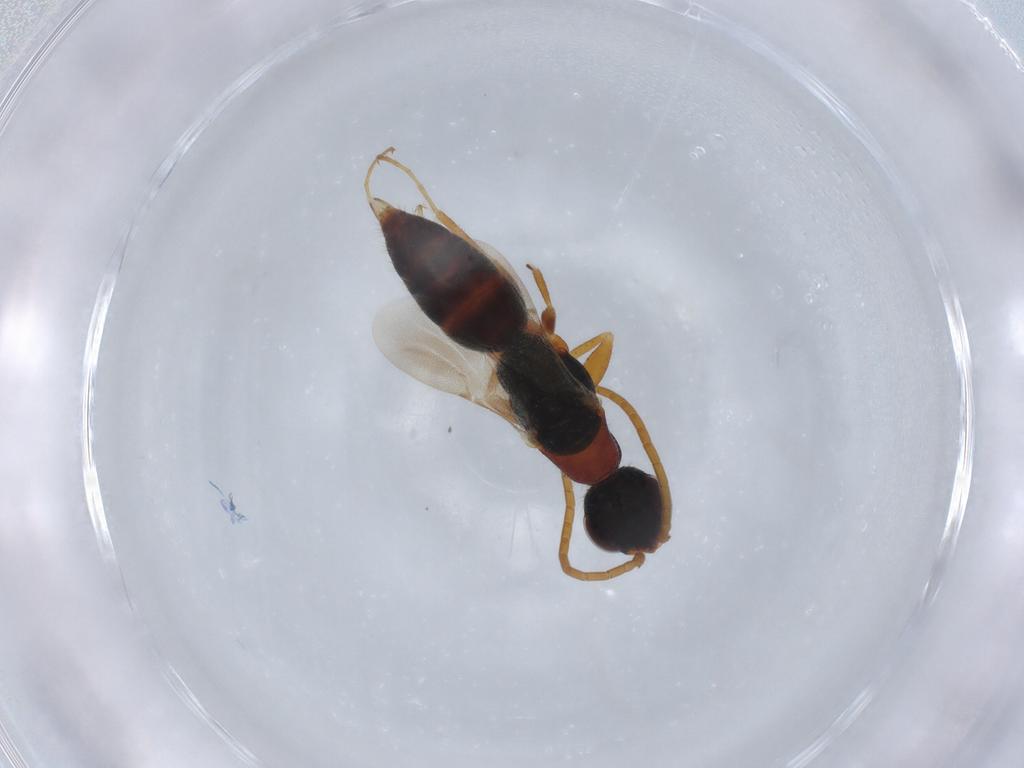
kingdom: Animalia
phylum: Arthropoda
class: Insecta
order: Hymenoptera
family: Bethylidae
